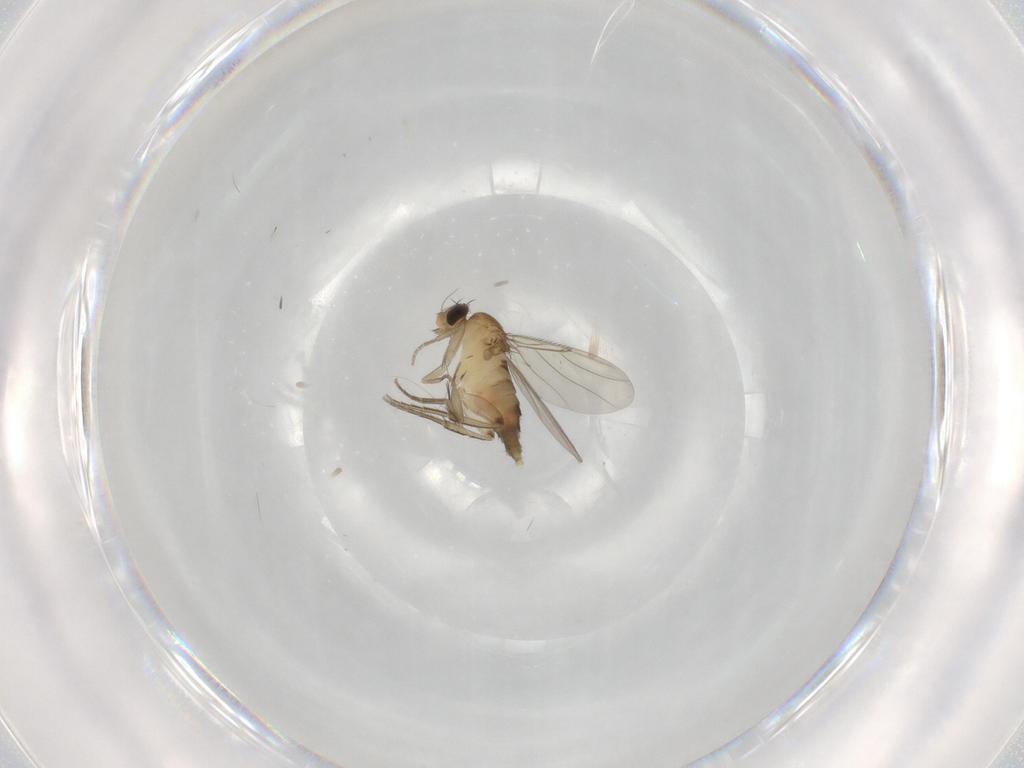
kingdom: Animalia
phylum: Arthropoda
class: Insecta
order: Diptera
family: Phoridae
